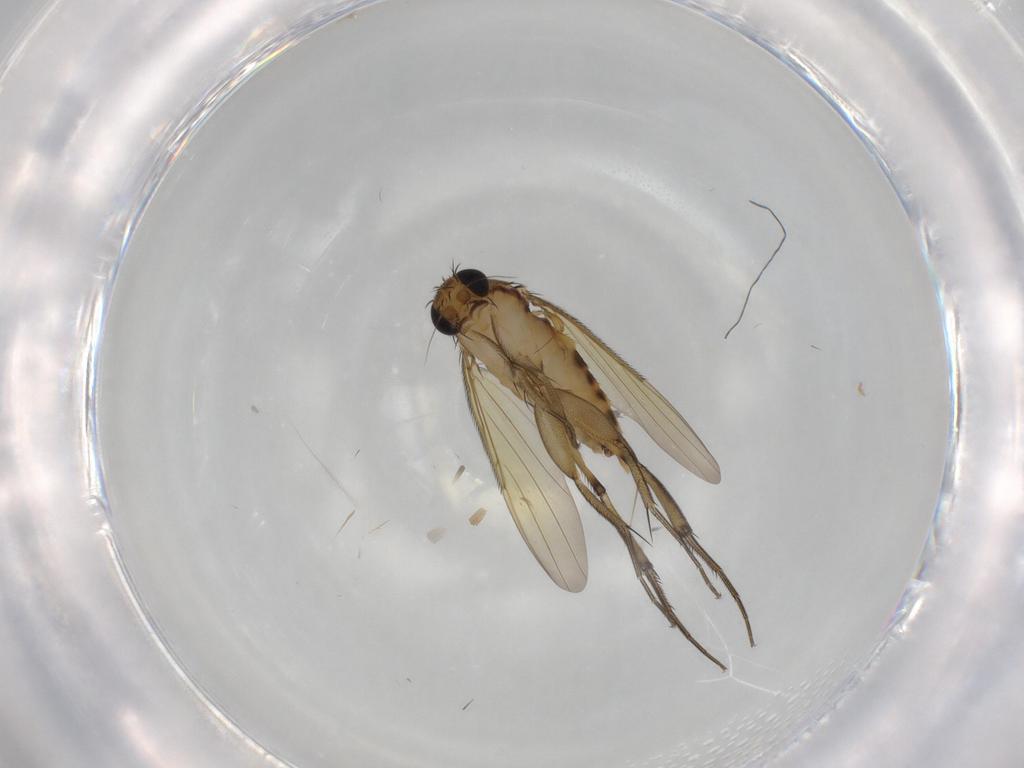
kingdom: Animalia
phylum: Arthropoda
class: Insecta
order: Diptera
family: Phoridae
